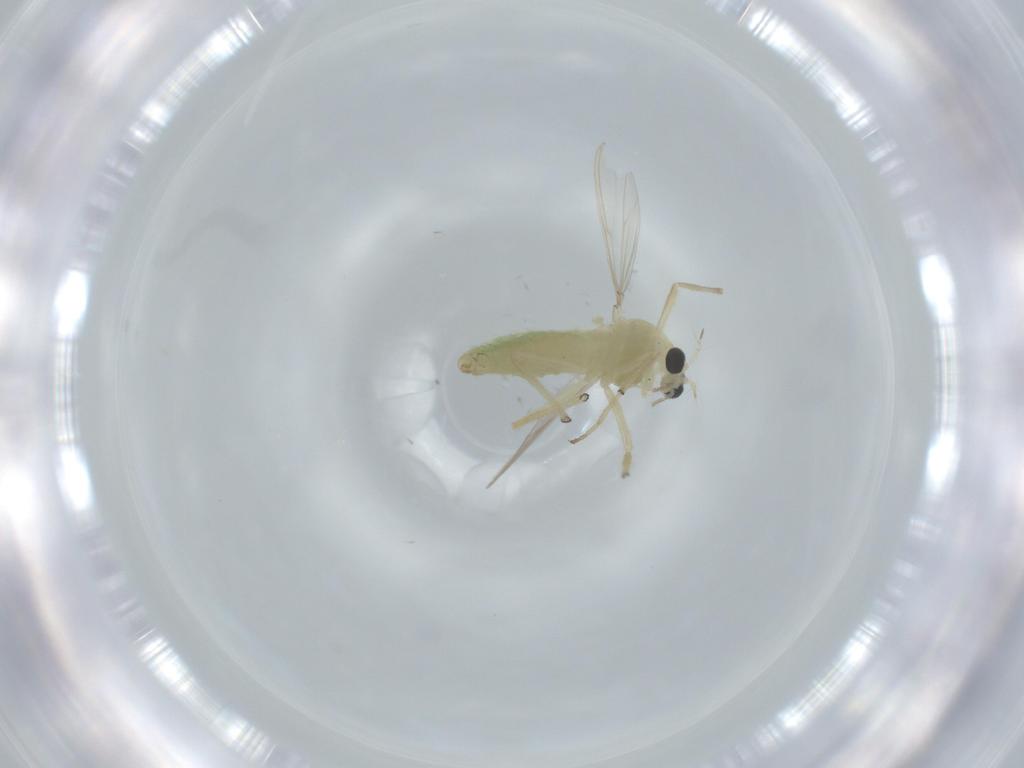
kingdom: Animalia
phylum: Arthropoda
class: Insecta
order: Diptera
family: Chironomidae
